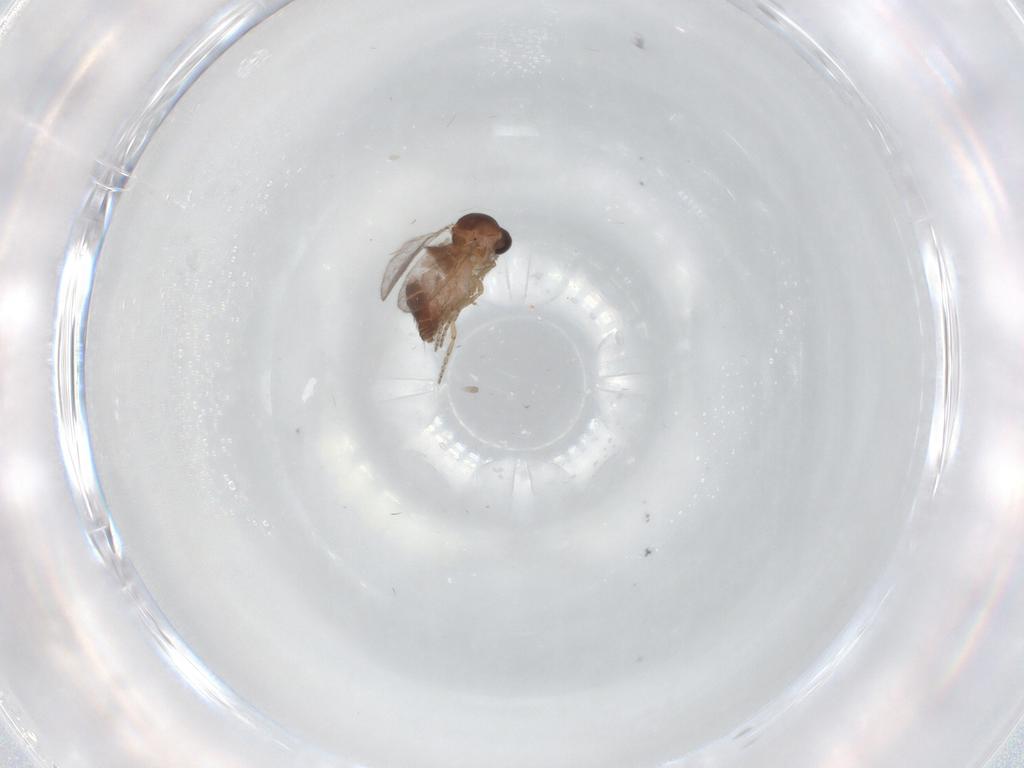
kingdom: Animalia
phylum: Arthropoda
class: Insecta
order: Diptera
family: Ceratopogonidae
